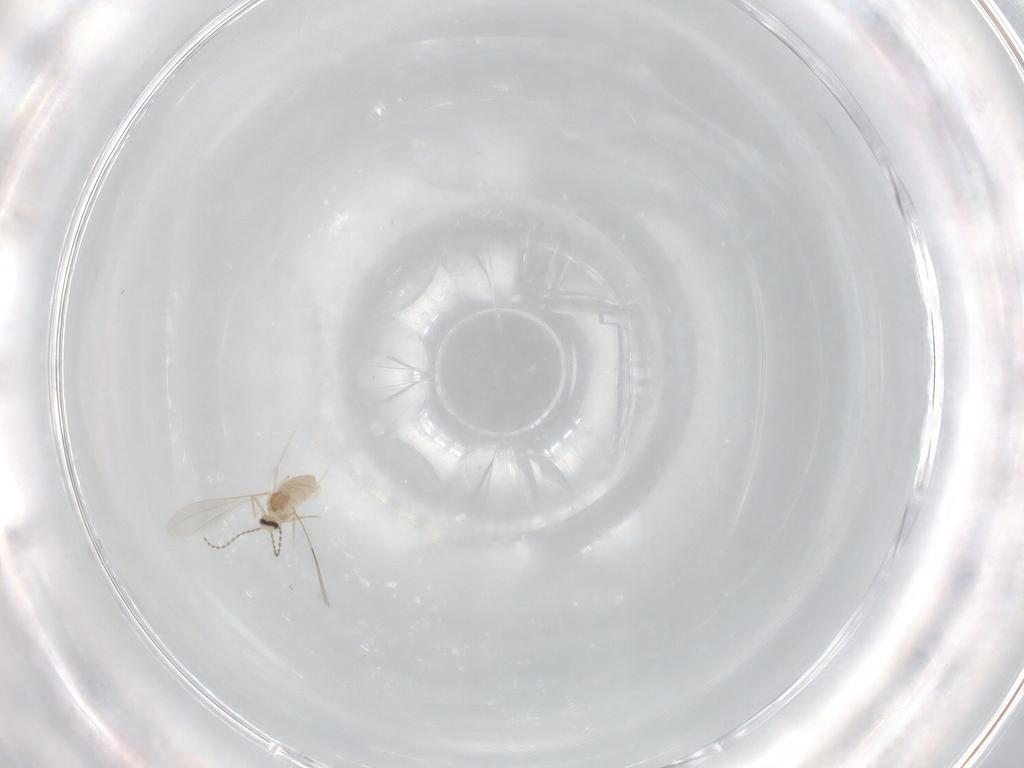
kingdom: Animalia
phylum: Arthropoda
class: Insecta
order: Diptera
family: Cecidomyiidae
